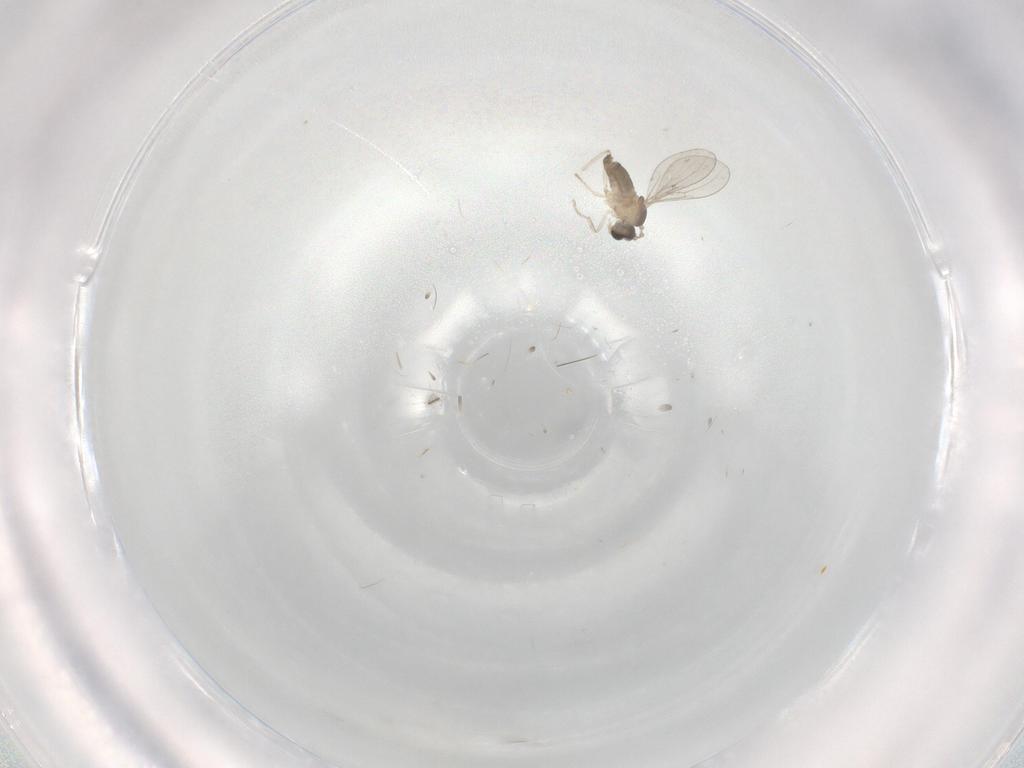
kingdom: Animalia
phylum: Arthropoda
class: Insecta
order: Diptera
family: Cecidomyiidae
